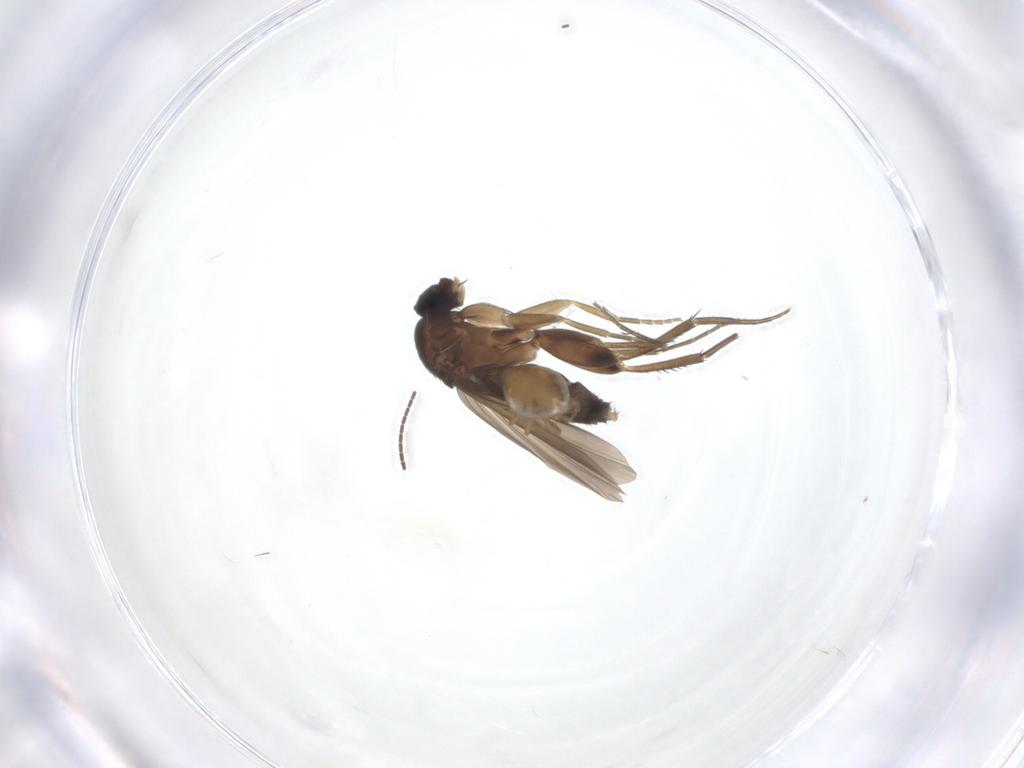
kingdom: Animalia
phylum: Arthropoda
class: Insecta
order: Diptera
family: Phoridae
